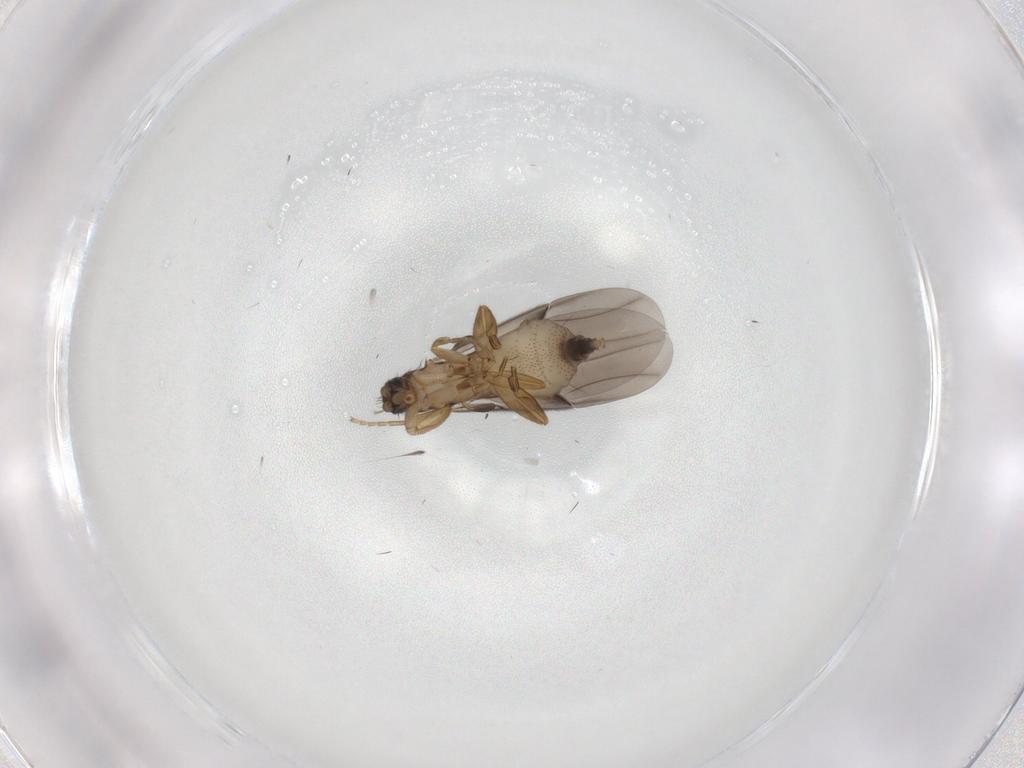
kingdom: Animalia
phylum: Arthropoda
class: Insecta
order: Diptera
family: Phoridae
